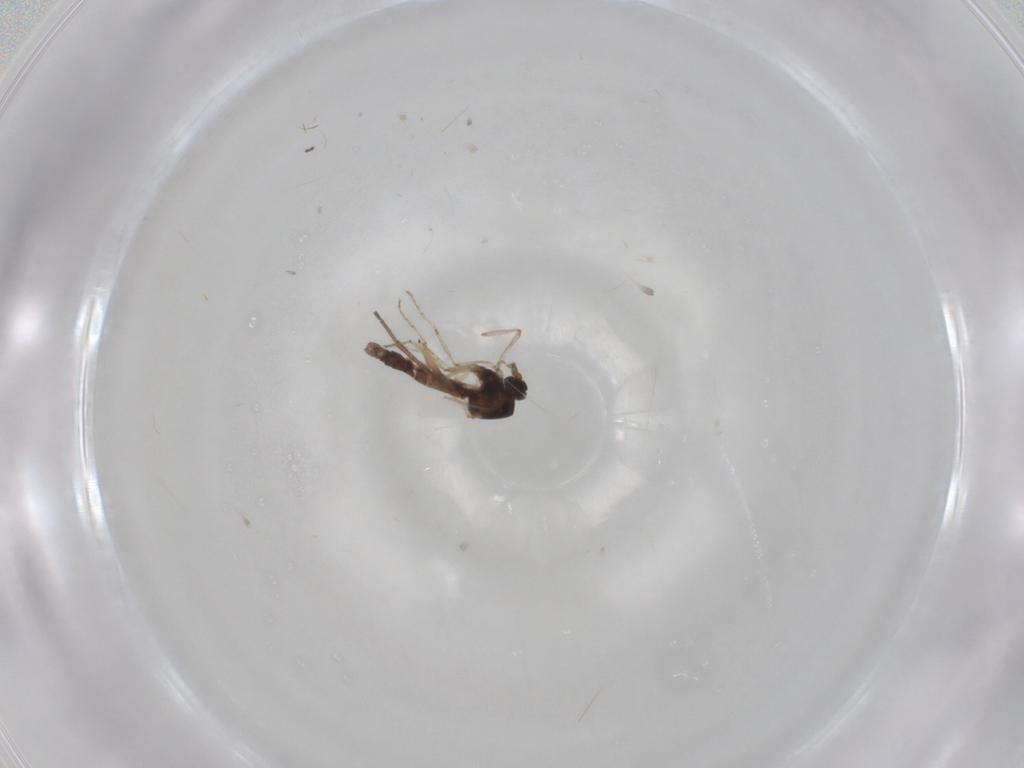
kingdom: Animalia
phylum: Arthropoda
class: Insecta
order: Diptera
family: Ceratopogonidae
